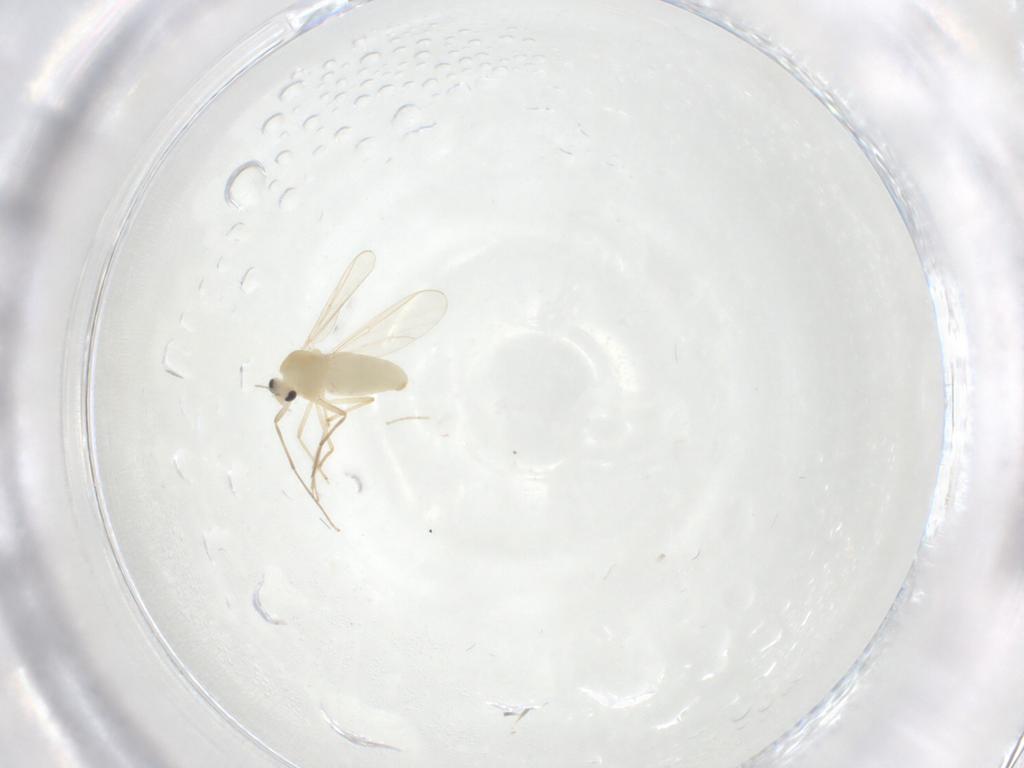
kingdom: Animalia
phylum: Arthropoda
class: Insecta
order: Diptera
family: Chironomidae
